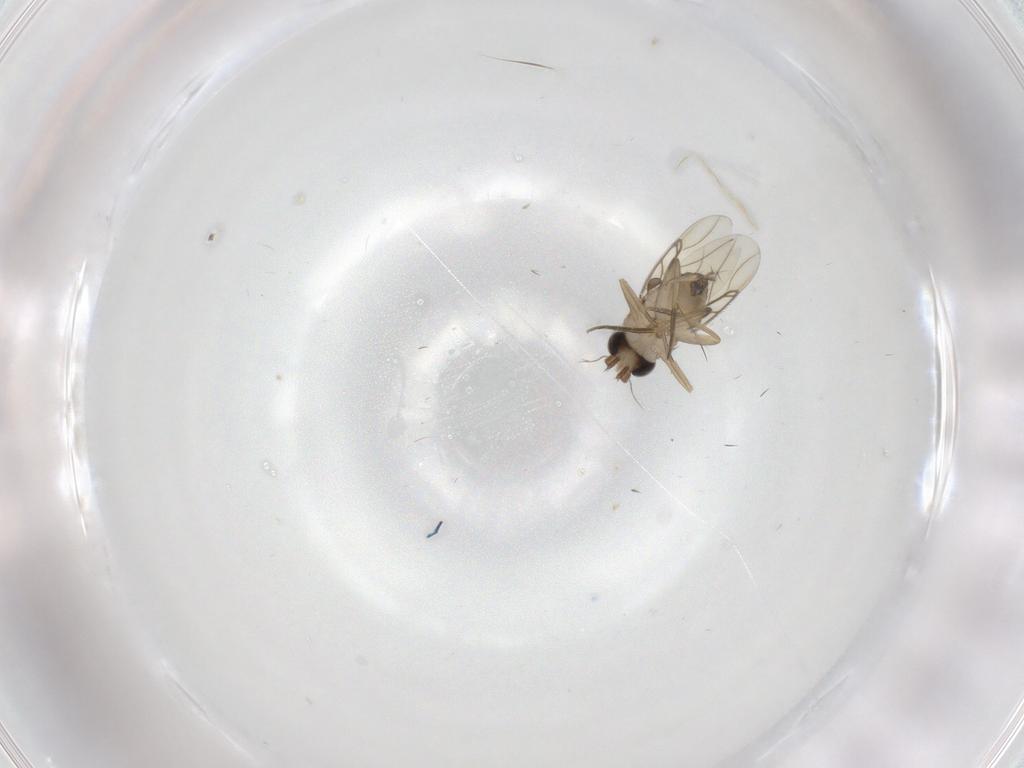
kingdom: Animalia
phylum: Arthropoda
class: Insecta
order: Diptera
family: Phoridae
